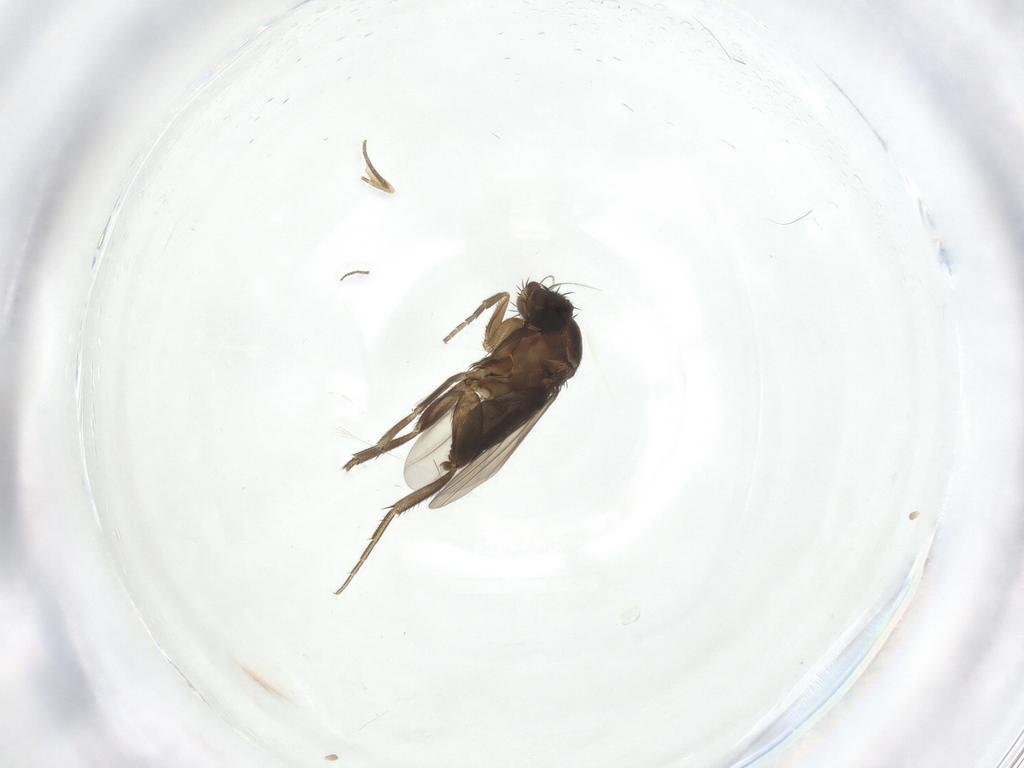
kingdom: Animalia
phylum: Arthropoda
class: Insecta
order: Diptera
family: Phoridae
